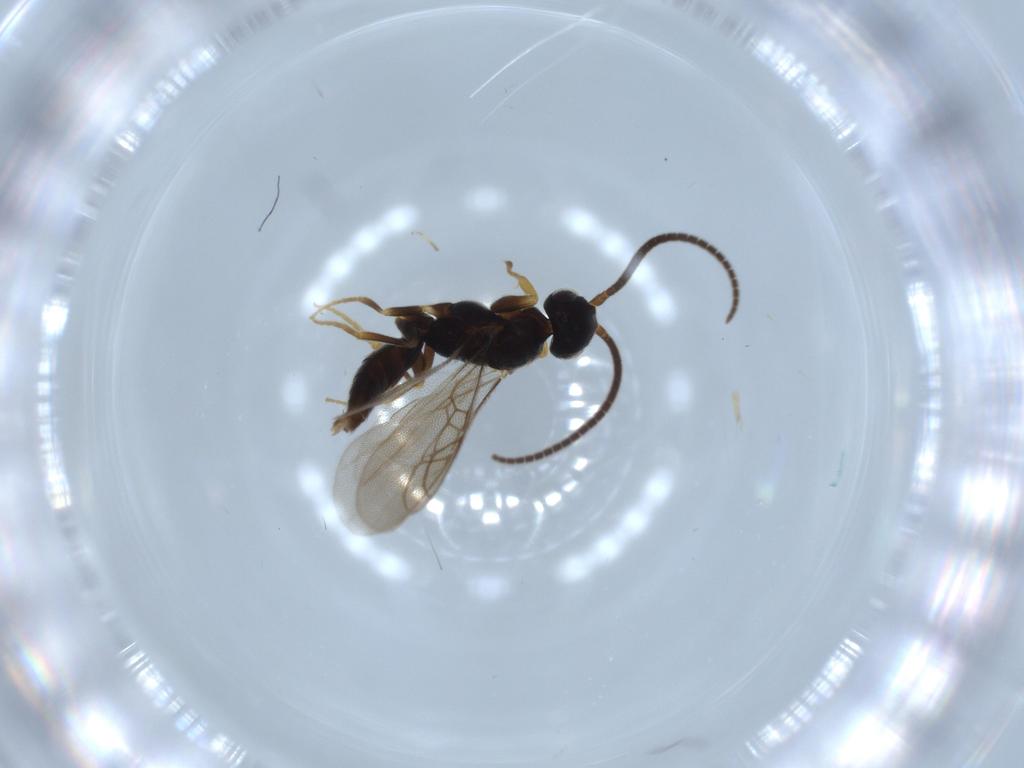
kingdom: Animalia
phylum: Arthropoda
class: Insecta
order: Hymenoptera
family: Sclerogibbidae
